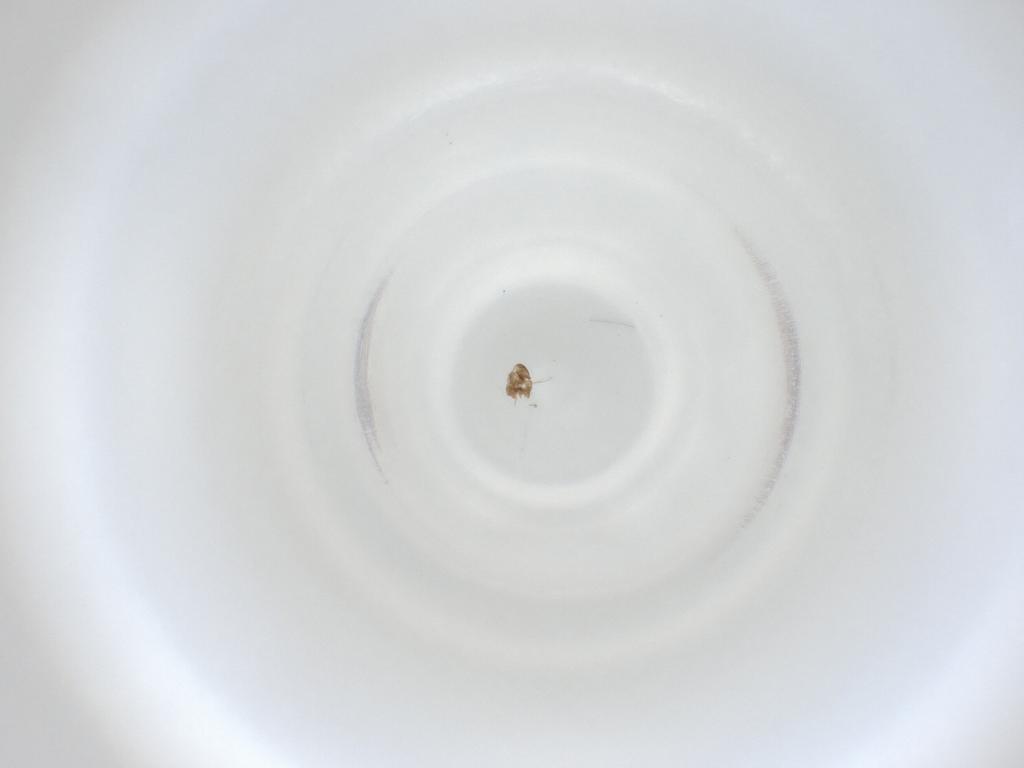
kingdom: Animalia
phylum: Arthropoda
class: Insecta
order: Diptera
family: Cecidomyiidae
